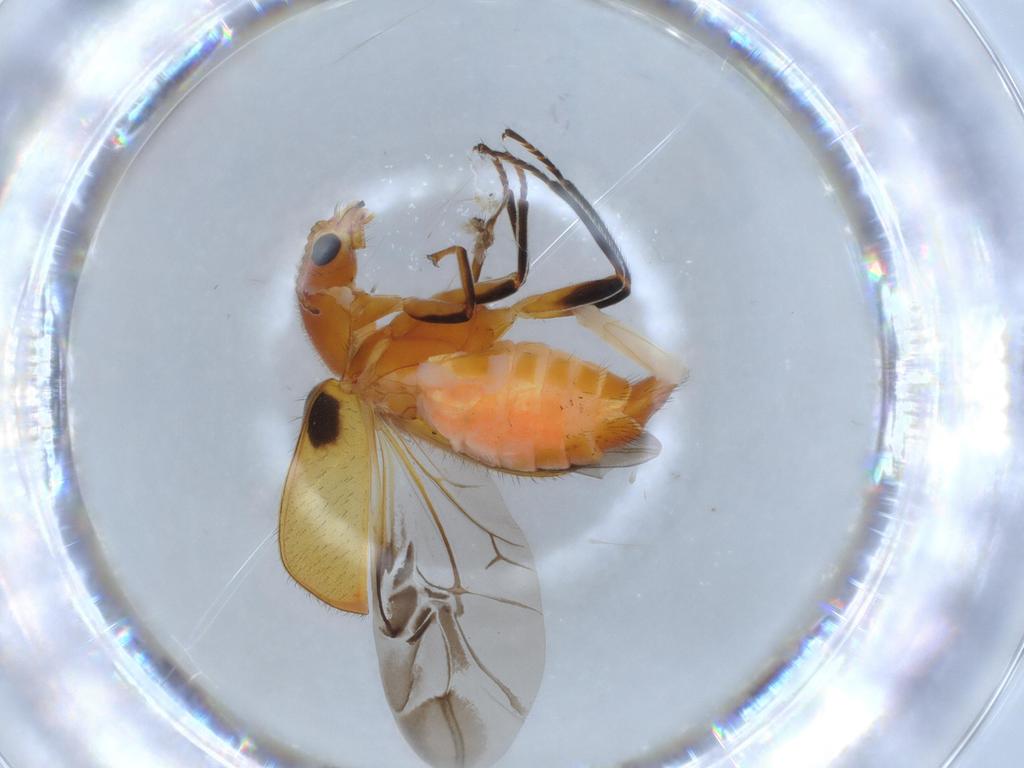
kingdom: Animalia
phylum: Arthropoda
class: Insecta
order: Coleoptera
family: Melyridae
